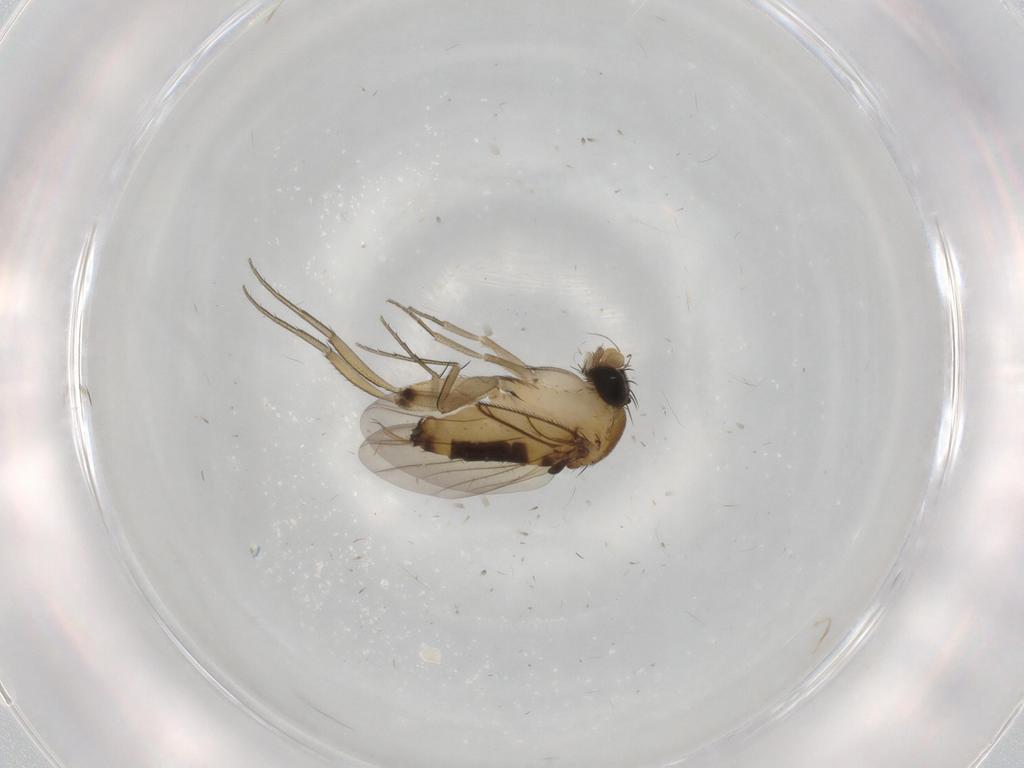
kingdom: Animalia
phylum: Arthropoda
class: Insecta
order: Diptera
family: Phoridae
